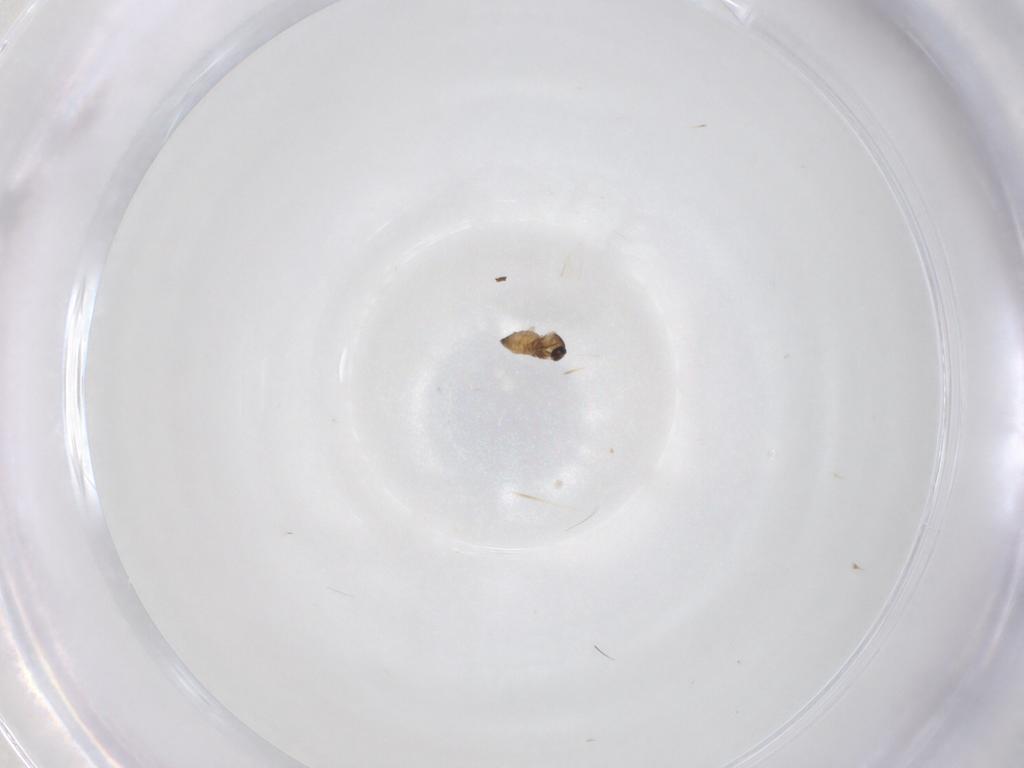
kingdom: Animalia
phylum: Arthropoda
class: Insecta
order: Diptera
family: Cecidomyiidae
